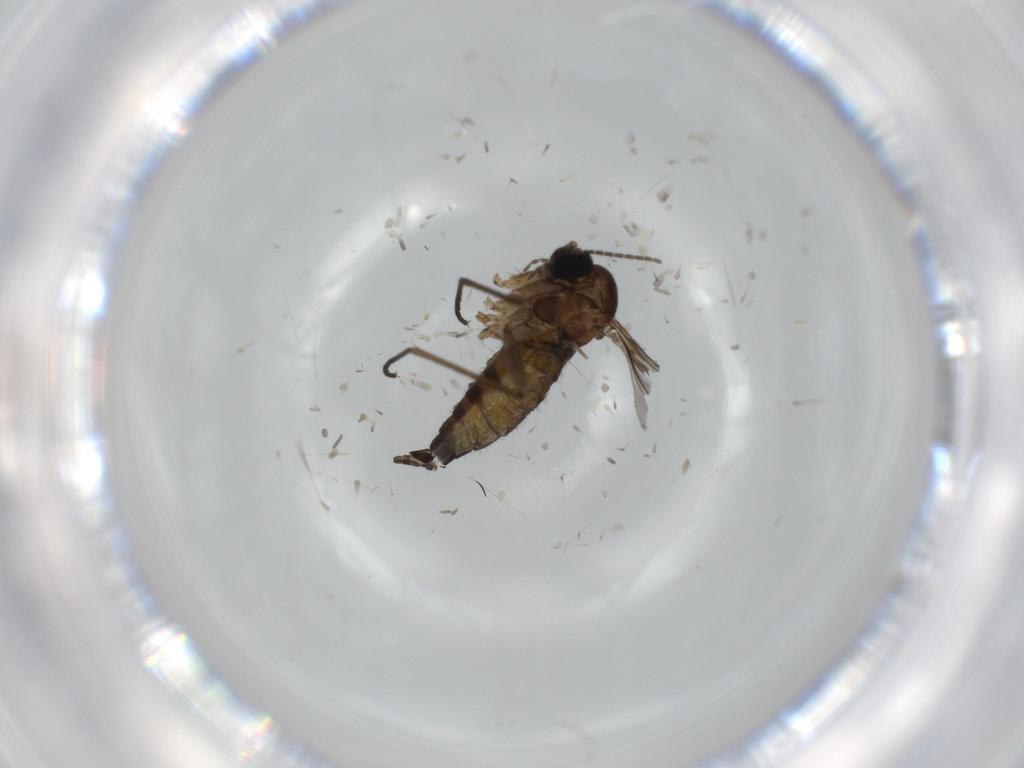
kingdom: Animalia
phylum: Arthropoda
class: Insecta
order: Diptera
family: Sciaridae
